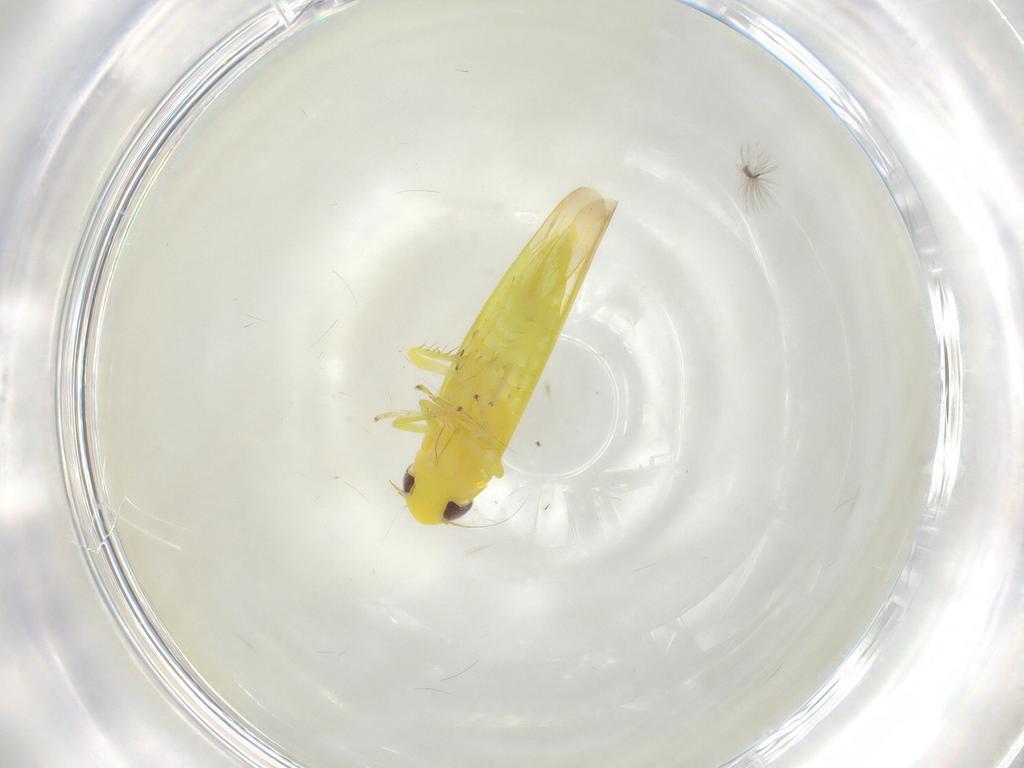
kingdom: Animalia
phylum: Arthropoda
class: Insecta
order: Hemiptera
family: Cicadellidae
